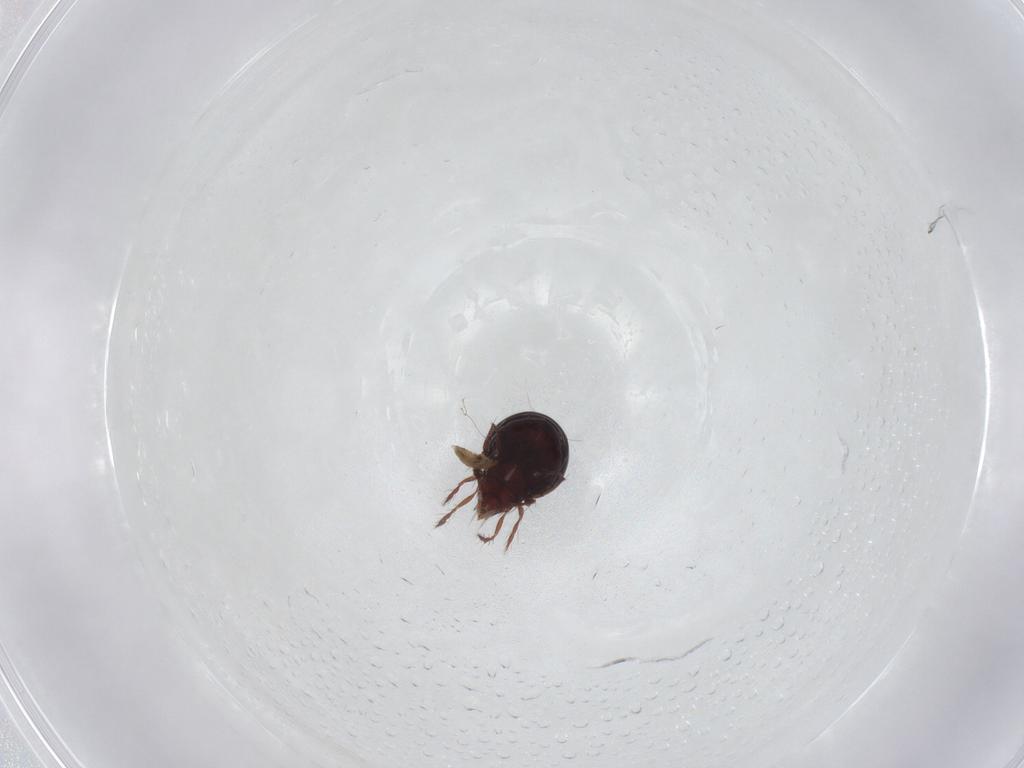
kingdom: Animalia
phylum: Arthropoda
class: Arachnida
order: Sarcoptiformes
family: Ceratoppiidae
